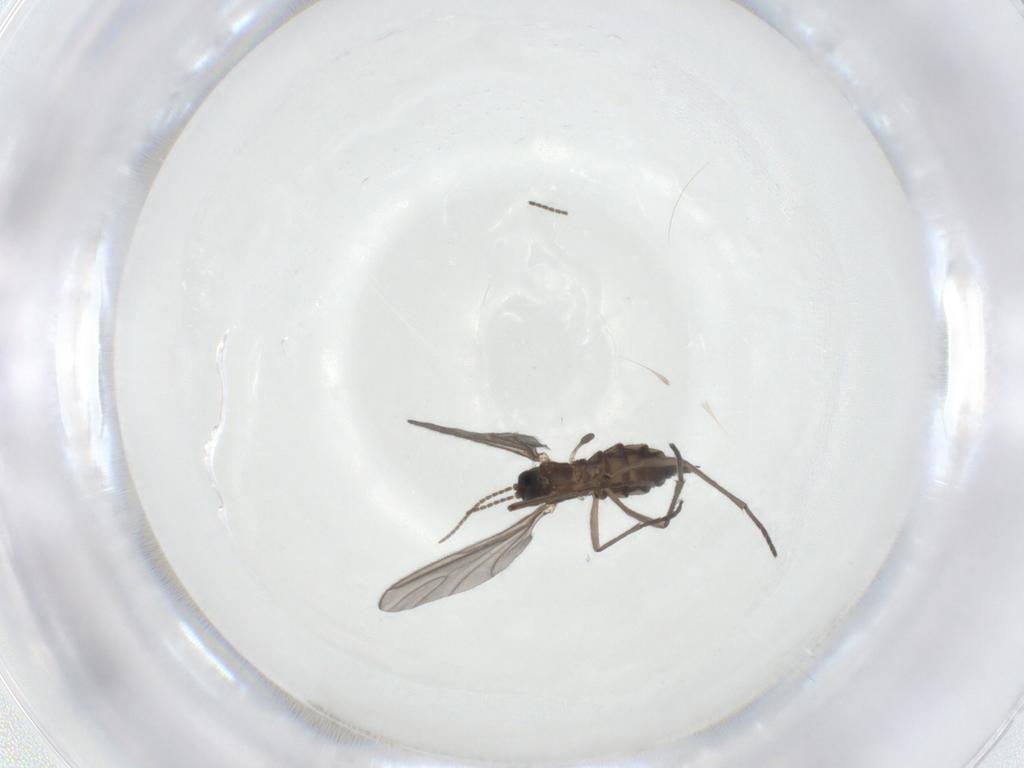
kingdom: Animalia
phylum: Arthropoda
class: Insecta
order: Diptera
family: Sciaridae
